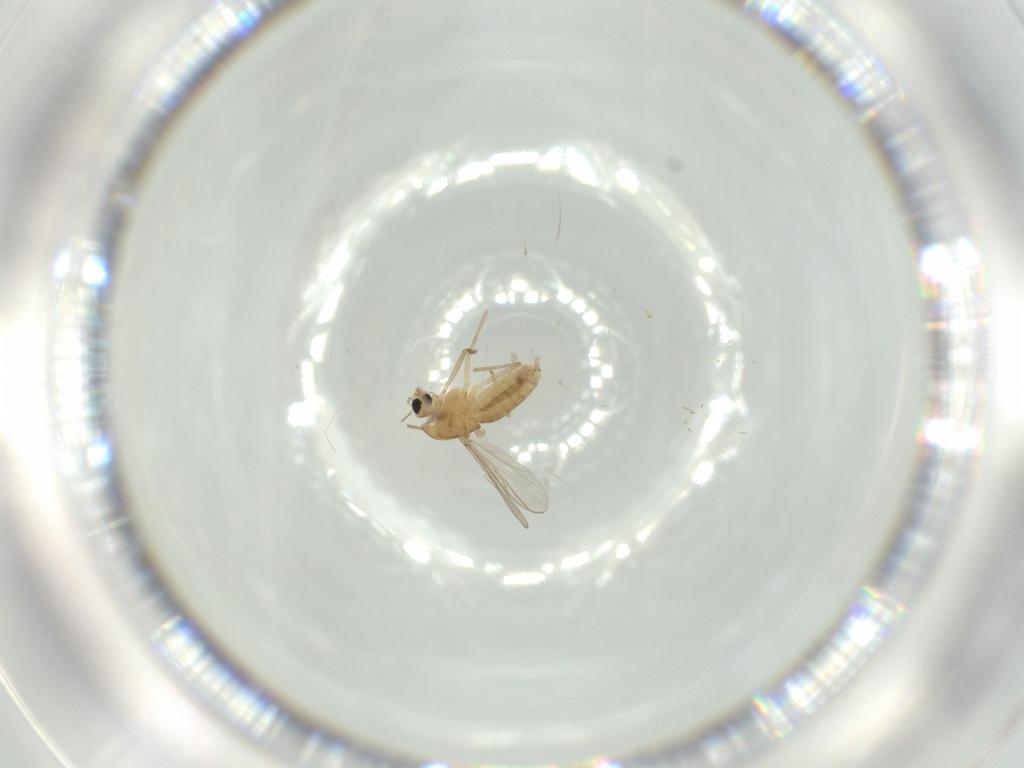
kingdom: Animalia
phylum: Arthropoda
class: Insecta
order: Diptera
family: Chironomidae
